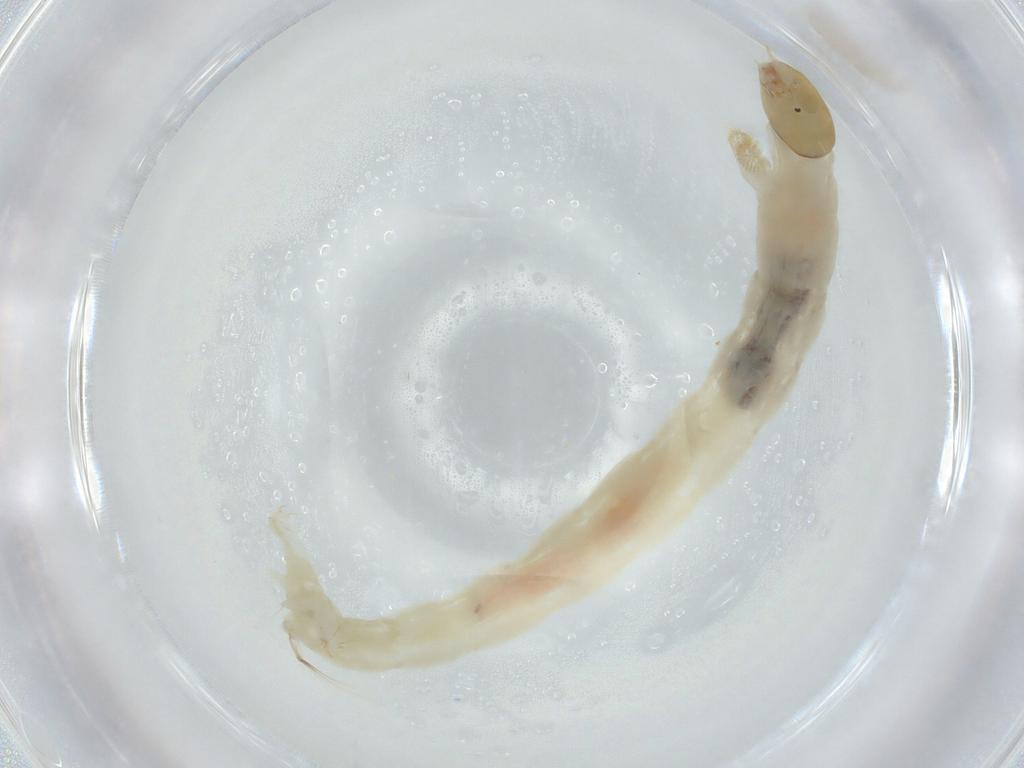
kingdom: Animalia
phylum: Arthropoda
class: Insecta
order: Diptera
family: Chironomidae
